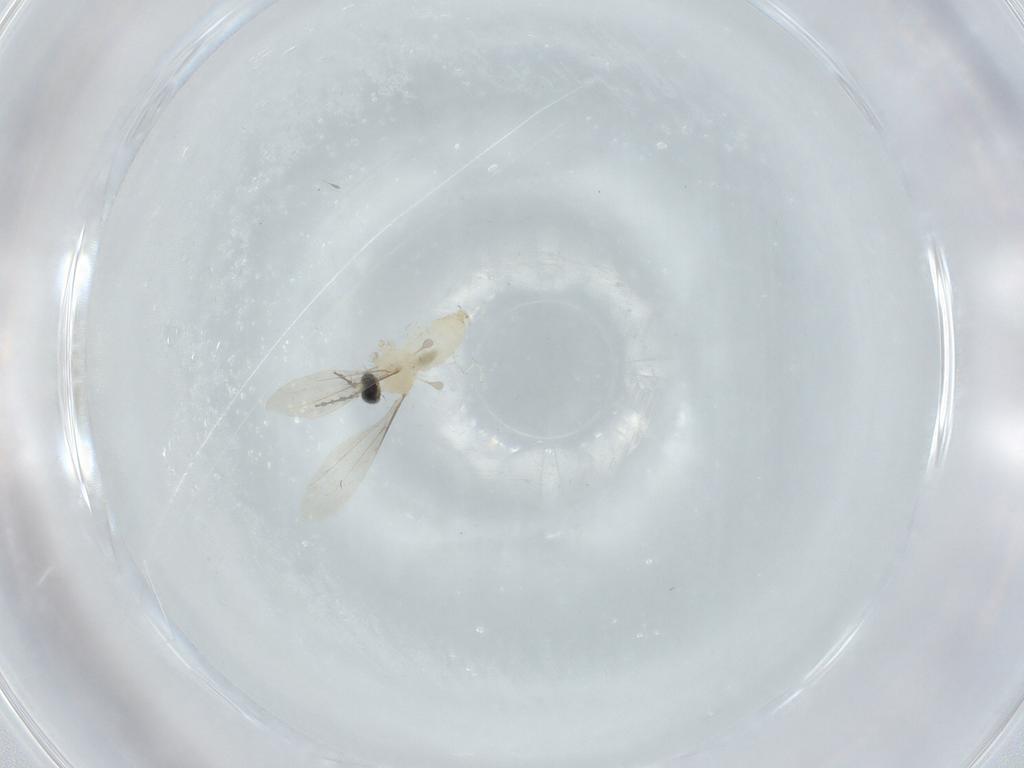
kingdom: Animalia
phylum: Arthropoda
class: Insecta
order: Diptera
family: Cecidomyiidae
